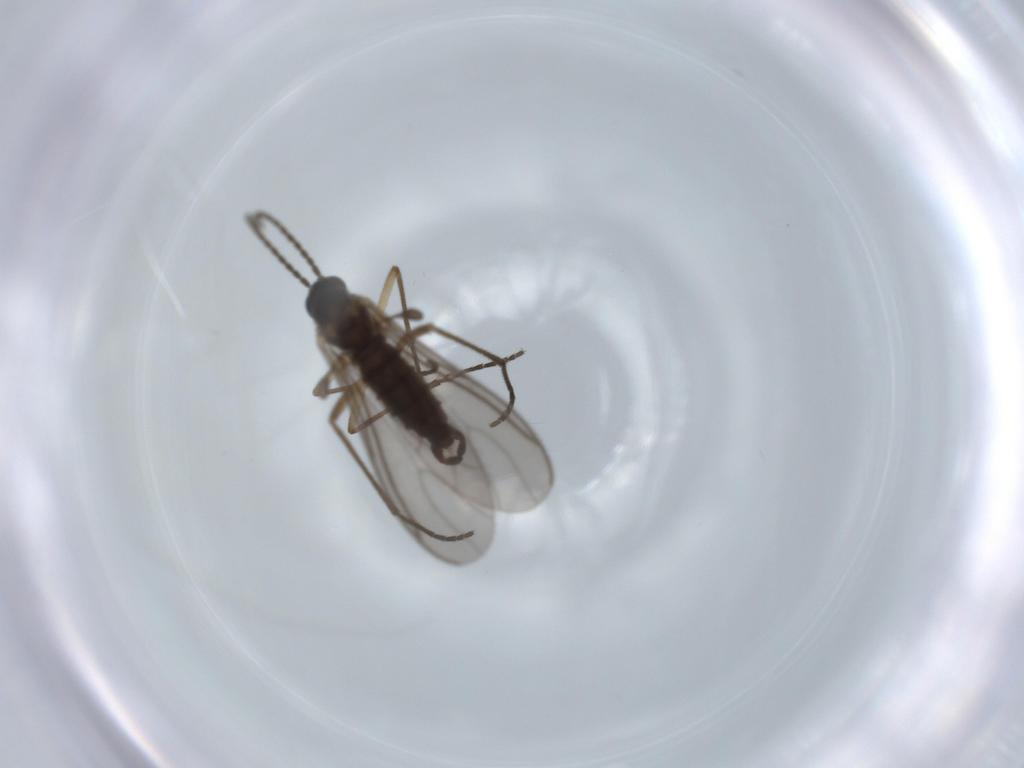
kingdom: Animalia
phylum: Arthropoda
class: Insecta
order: Diptera
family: Sciaridae
